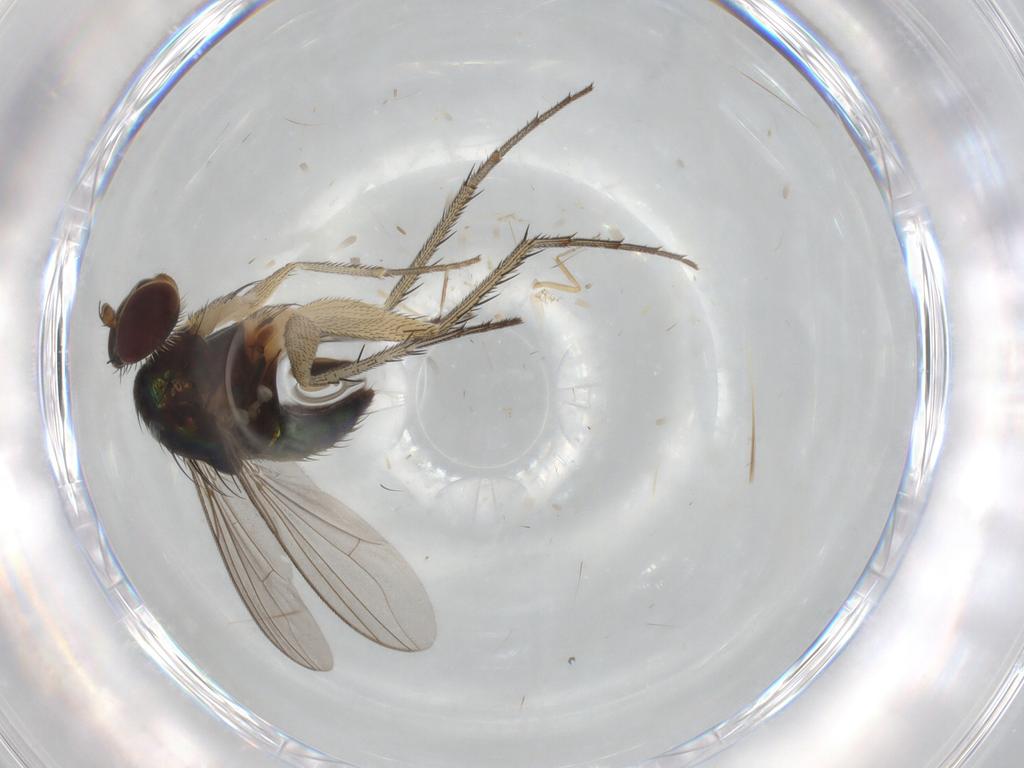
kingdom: Animalia
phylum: Arthropoda
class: Insecta
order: Diptera
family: Dolichopodidae
